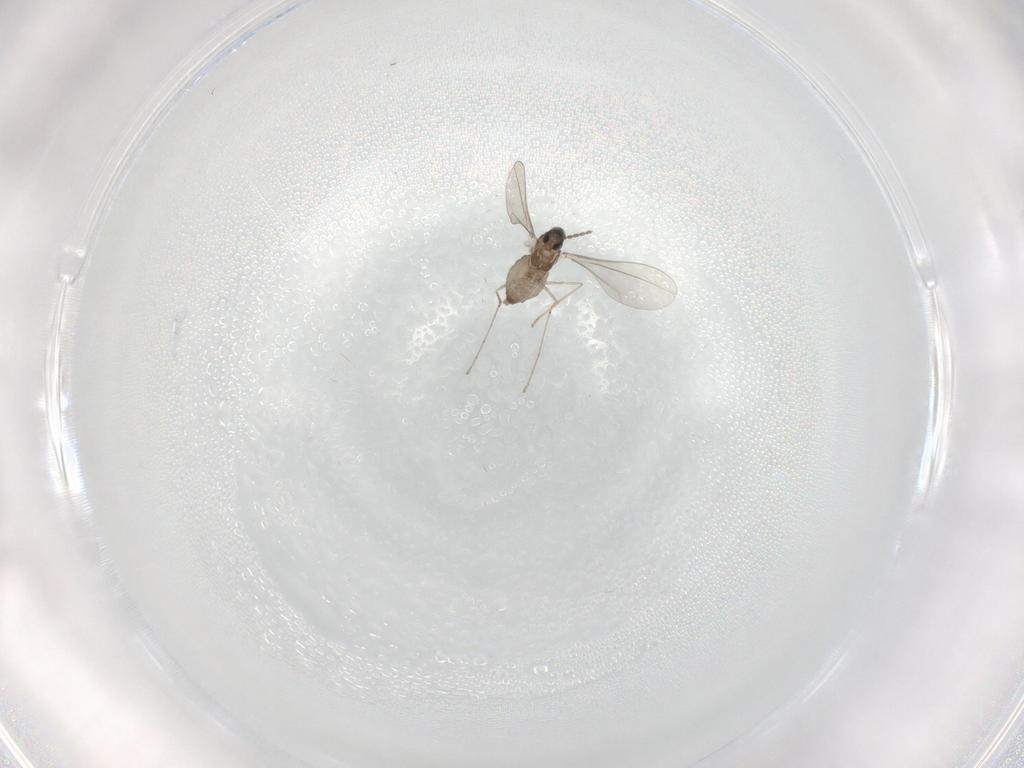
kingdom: Animalia
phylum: Arthropoda
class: Insecta
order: Diptera
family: Cecidomyiidae
